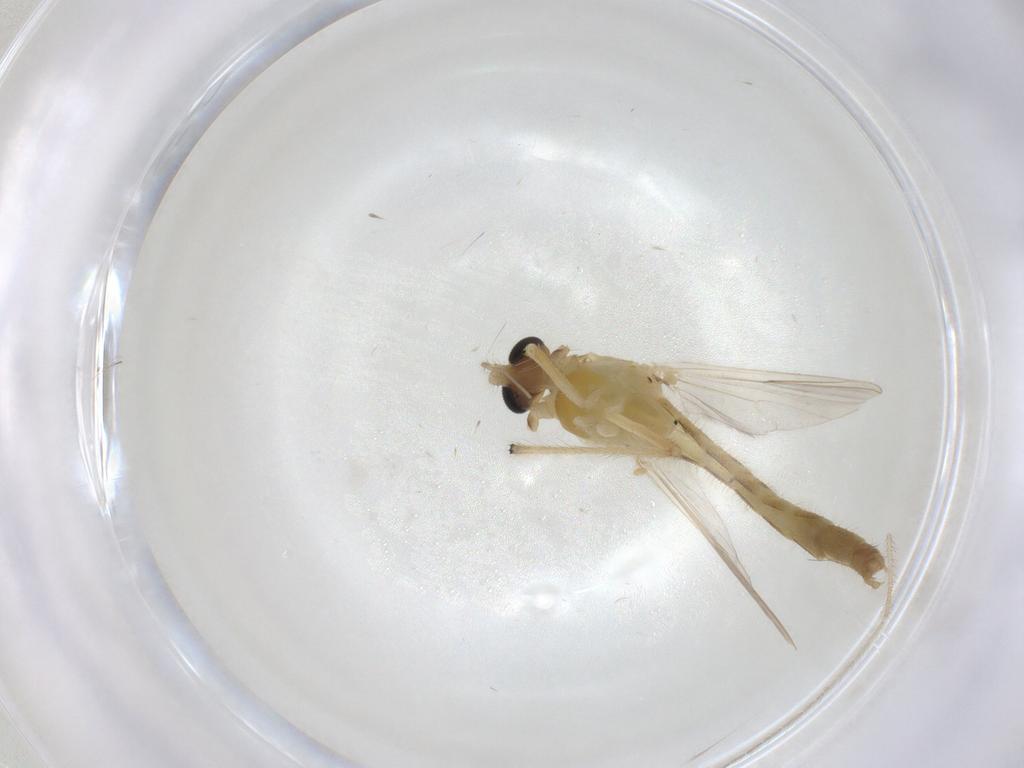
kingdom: Animalia
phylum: Arthropoda
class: Insecta
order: Diptera
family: Chironomidae
